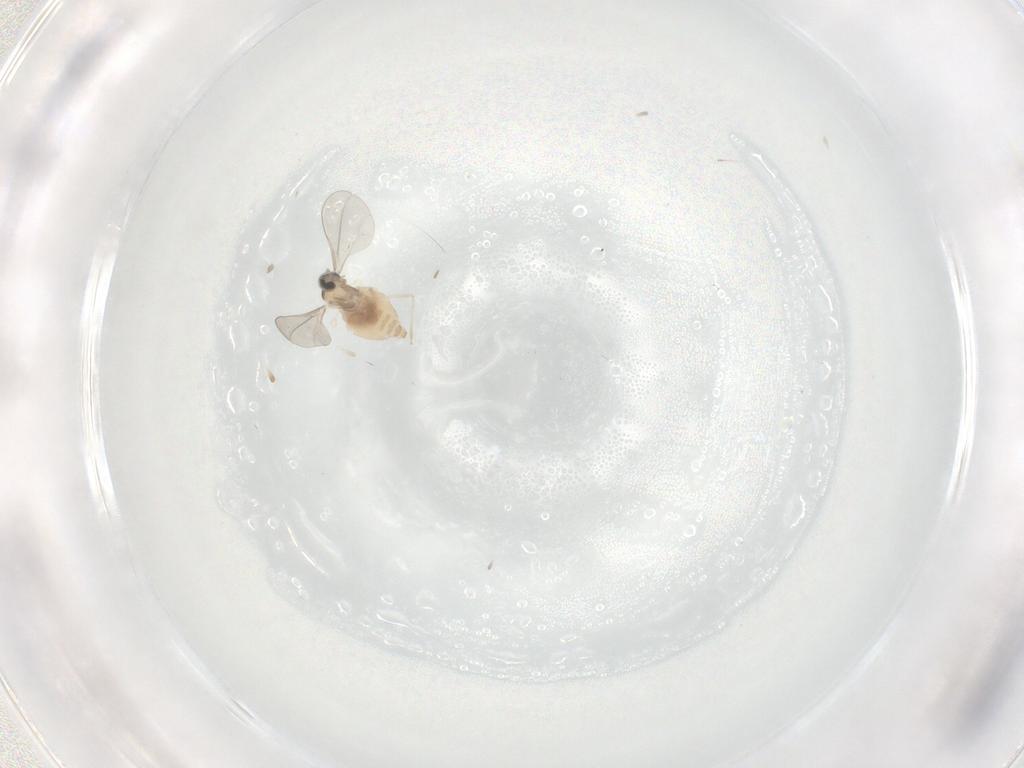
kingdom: Animalia
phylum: Arthropoda
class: Insecta
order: Diptera
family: Cecidomyiidae
